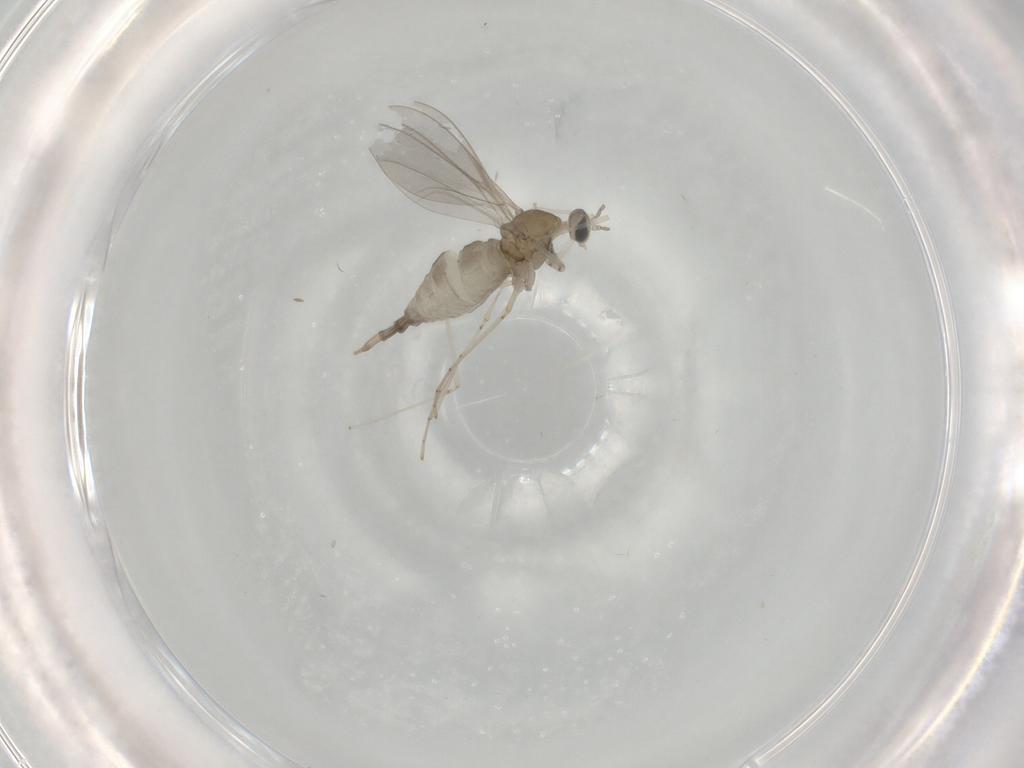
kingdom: Animalia
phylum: Arthropoda
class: Insecta
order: Diptera
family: Cecidomyiidae
